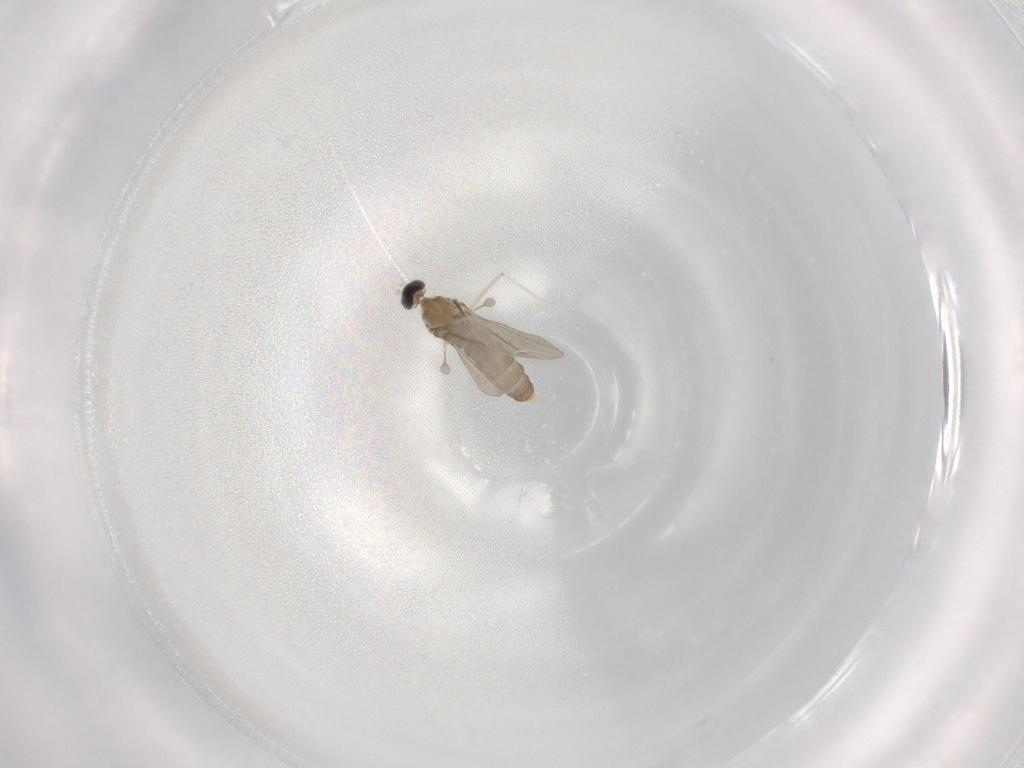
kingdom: Animalia
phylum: Arthropoda
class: Insecta
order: Diptera
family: Cecidomyiidae
